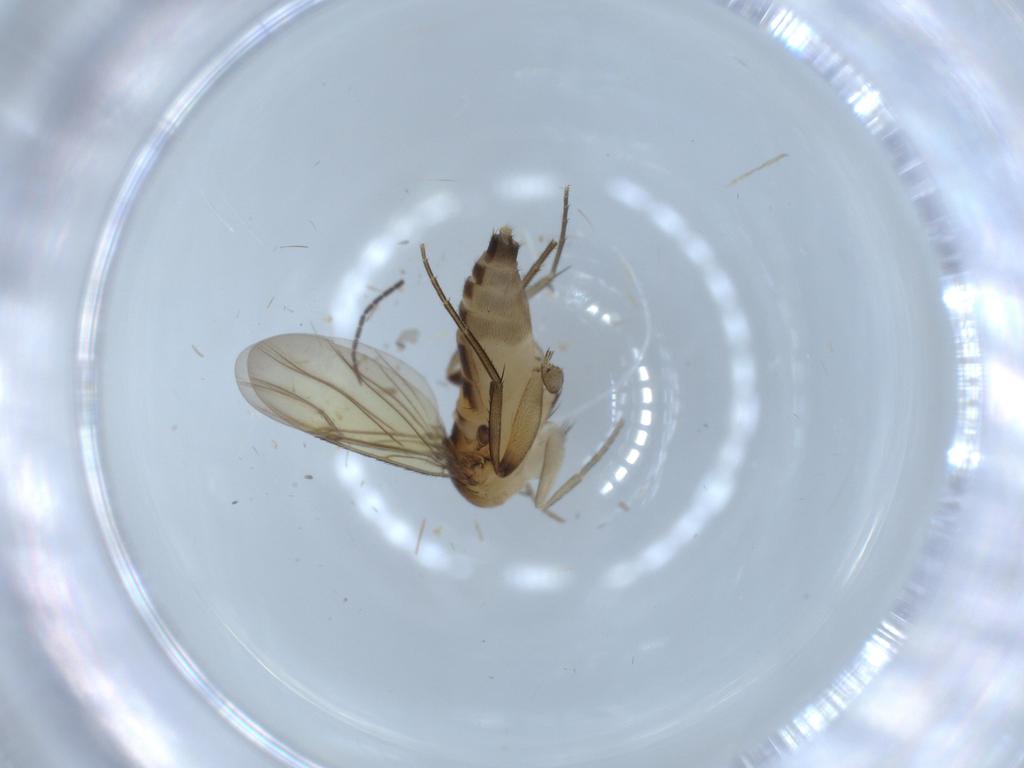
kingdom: Animalia
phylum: Arthropoda
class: Insecta
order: Diptera
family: Phoridae
